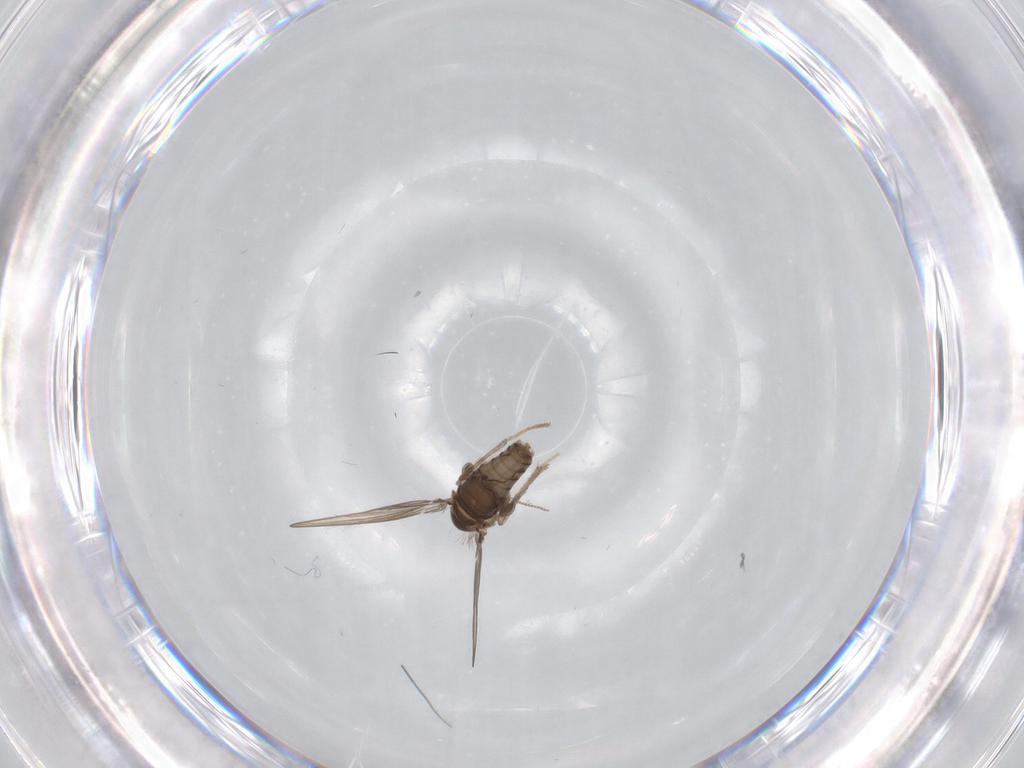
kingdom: Animalia
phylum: Arthropoda
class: Insecta
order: Diptera
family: Psychodidae
